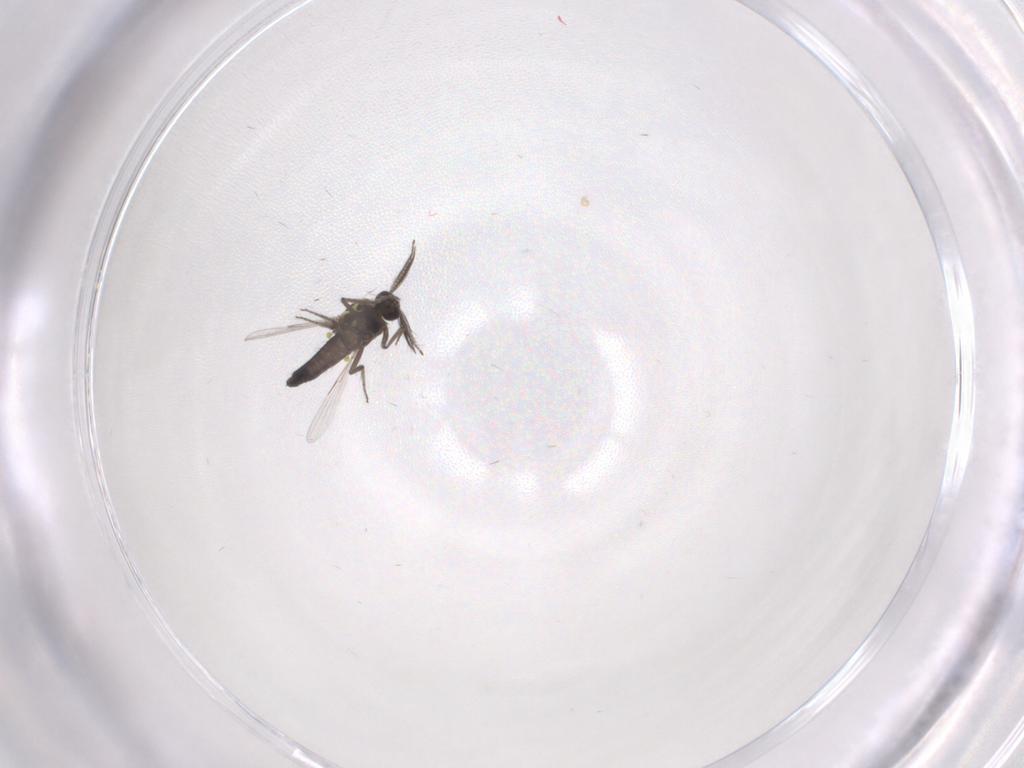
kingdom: Animalia
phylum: Arthropoda
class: Insecta
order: Diptera
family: Ceratopogonidae
